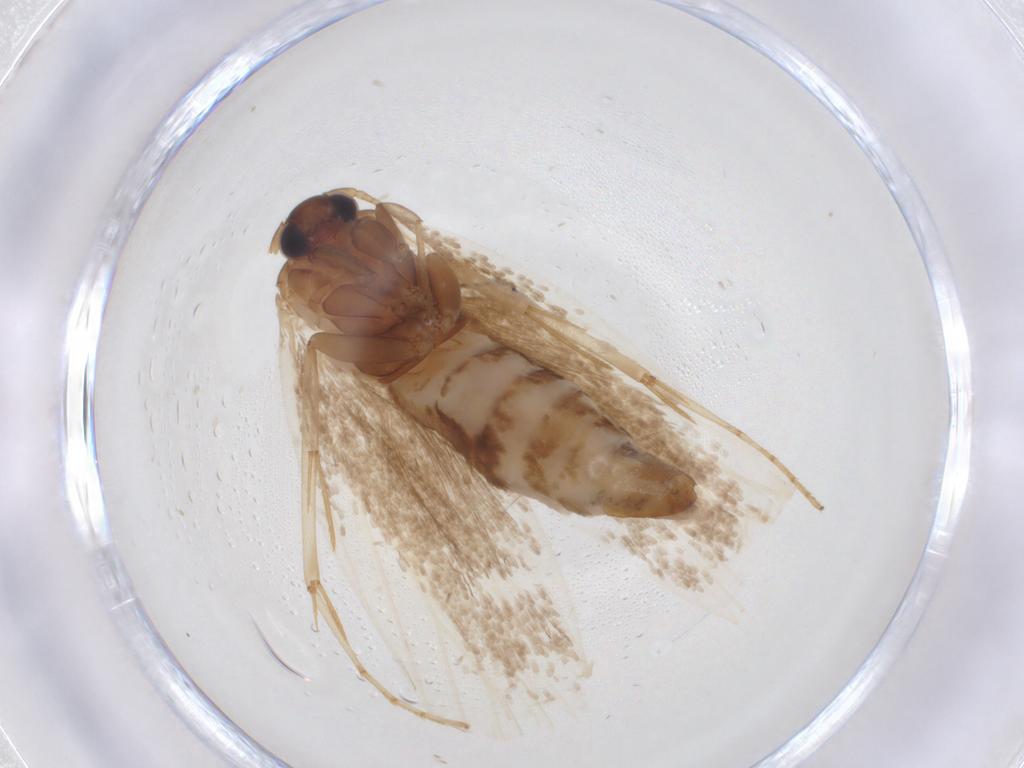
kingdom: Animalia
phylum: Arthropoda
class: Insecta
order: Lepidoptera
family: Erebidae
